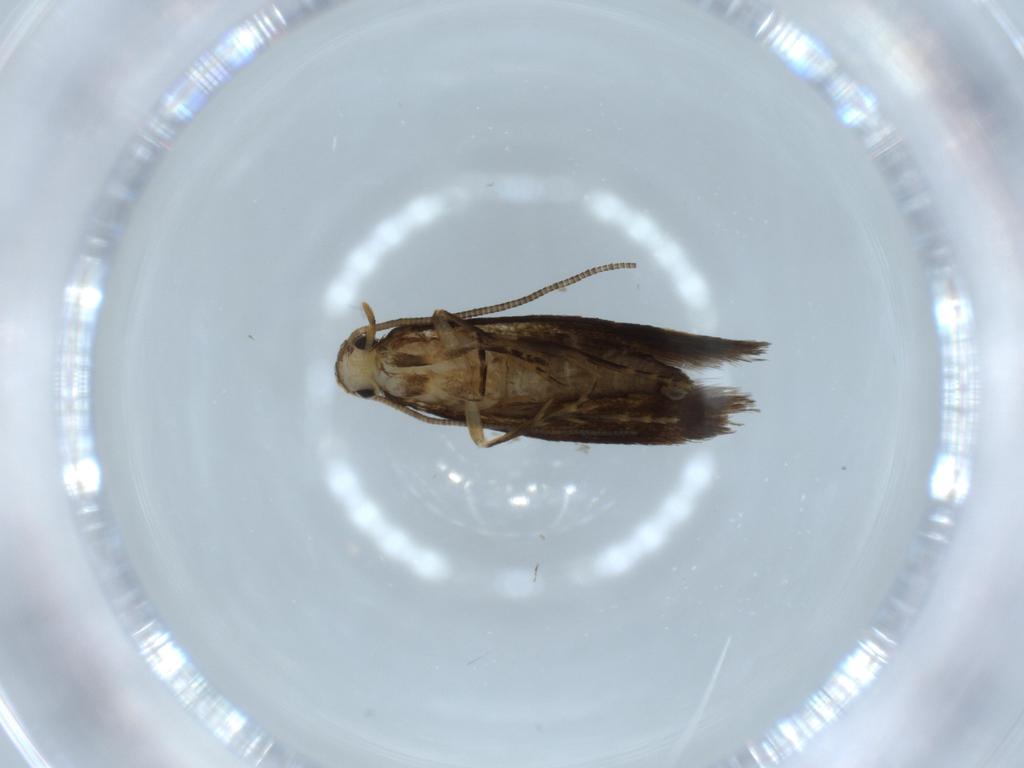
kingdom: Animalia
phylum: Arthropoda
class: Insecta
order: Lepidoptera
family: Tineidae
